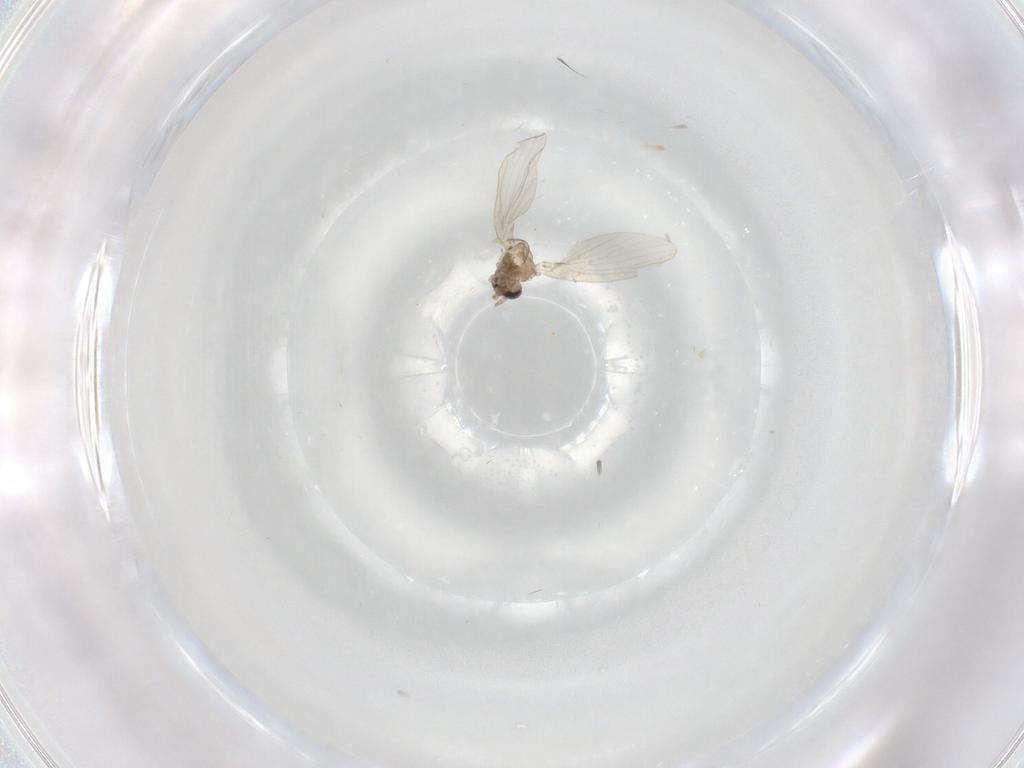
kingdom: Animalia
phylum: Arthropoda
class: Insecta
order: Diptera
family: Psychodidae
